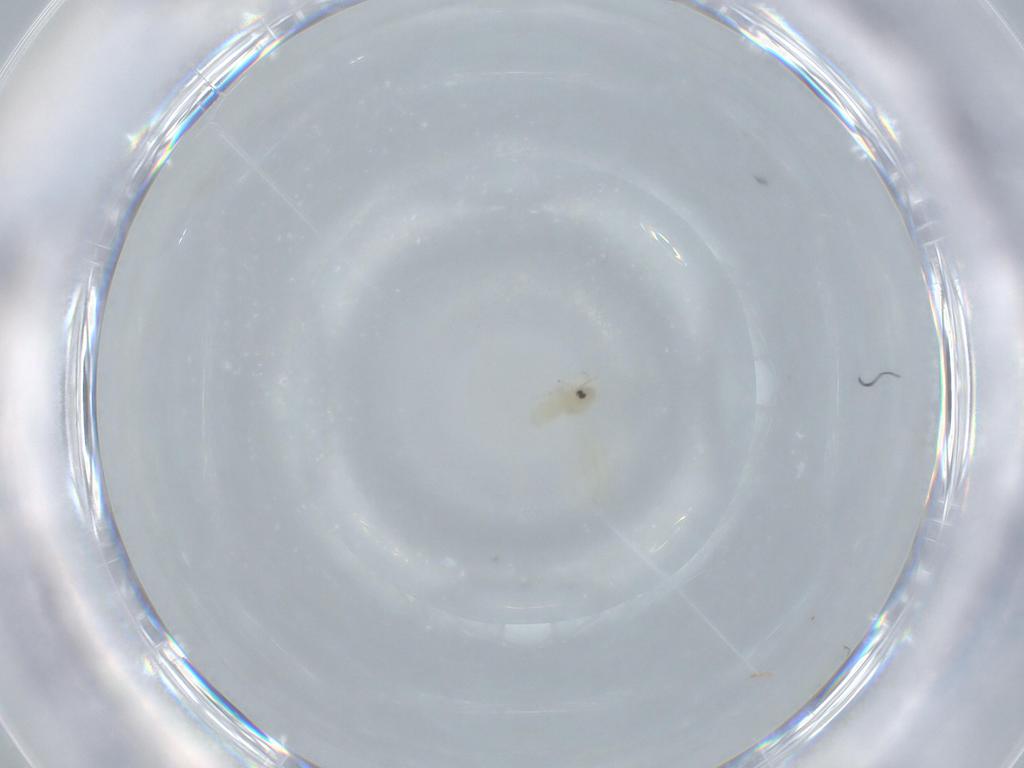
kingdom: Animalia
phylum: Arthropoda
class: Insecta
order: Hemiptera
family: Aleyrodidae
